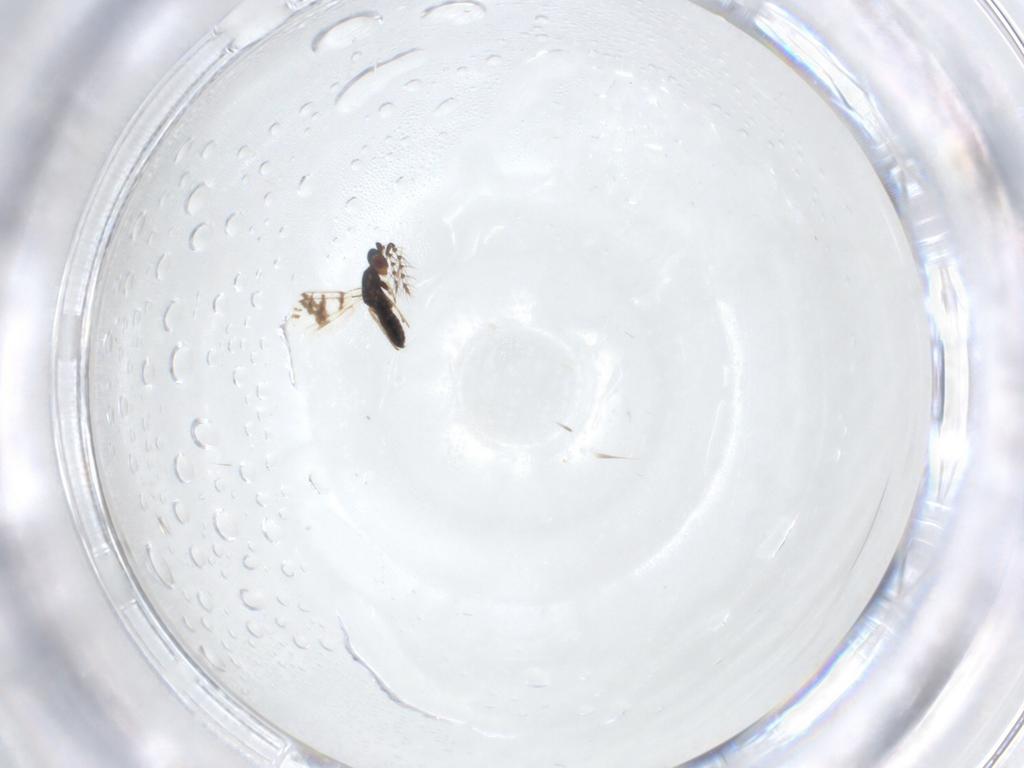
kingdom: Animalia
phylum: Arthropoda
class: Insecta
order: Hymenoptera
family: Eulophidae
